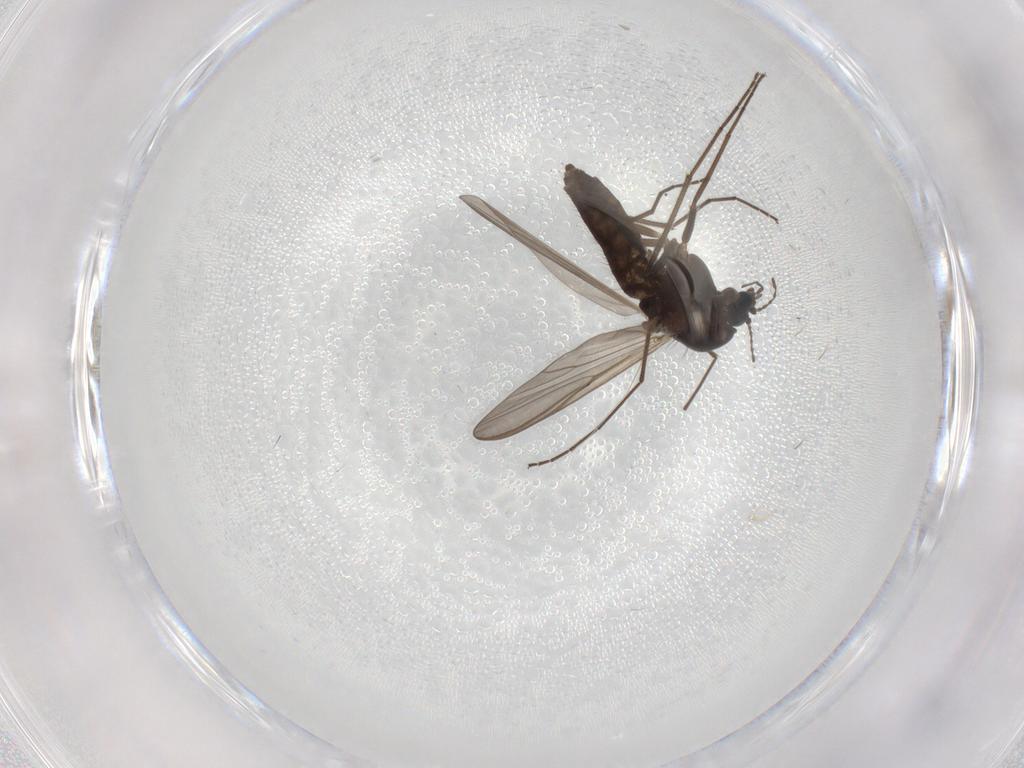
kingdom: Animalia
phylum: Arthropoda
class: Insecta
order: Diptera
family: Chironomidae
